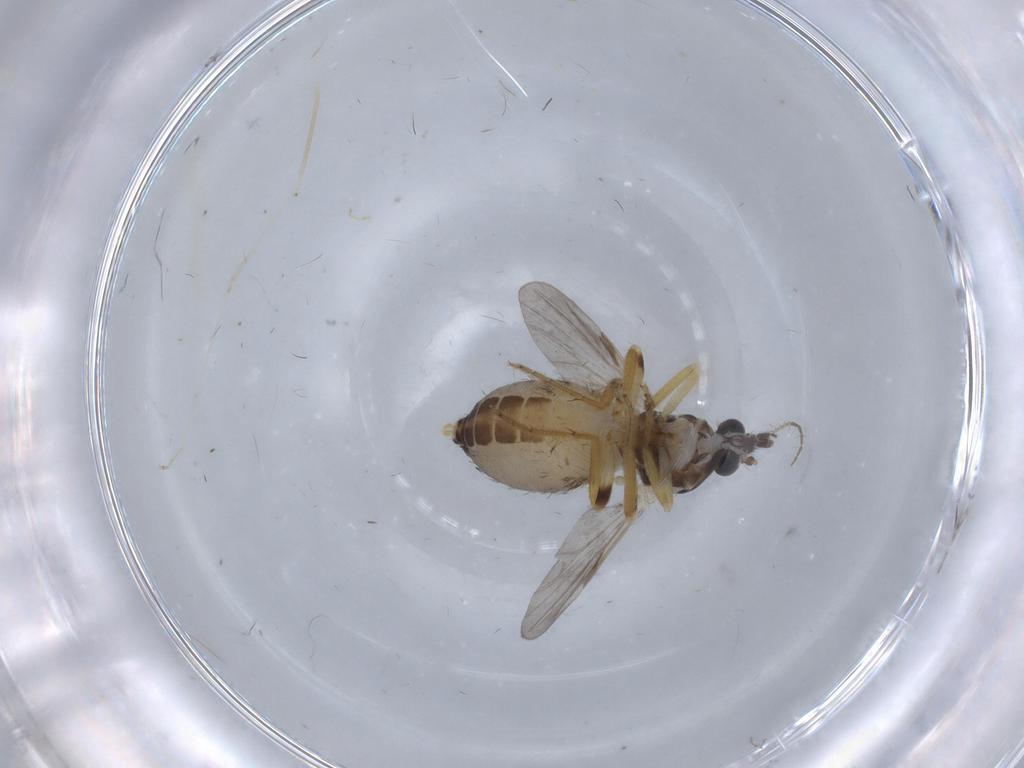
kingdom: Animalia
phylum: Arthropoda
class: Insecta
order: Diptera
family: Ceratopogonidae
